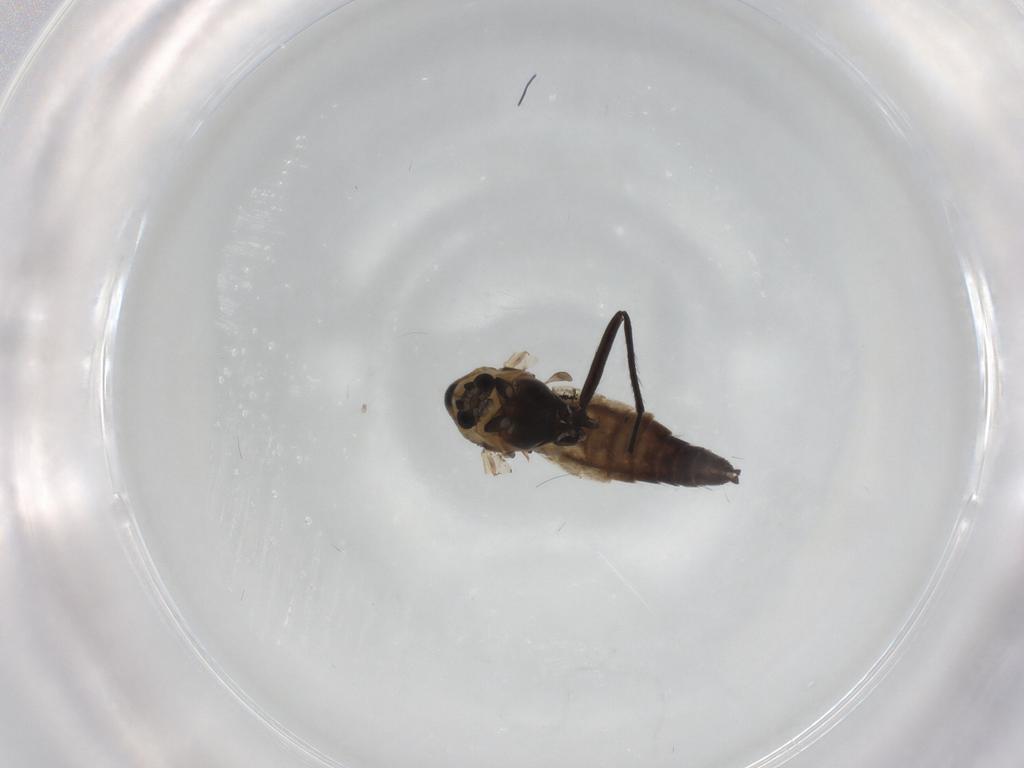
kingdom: Animalia
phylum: Arthropoda
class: Insecta
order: Diptera
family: Chironomidae
